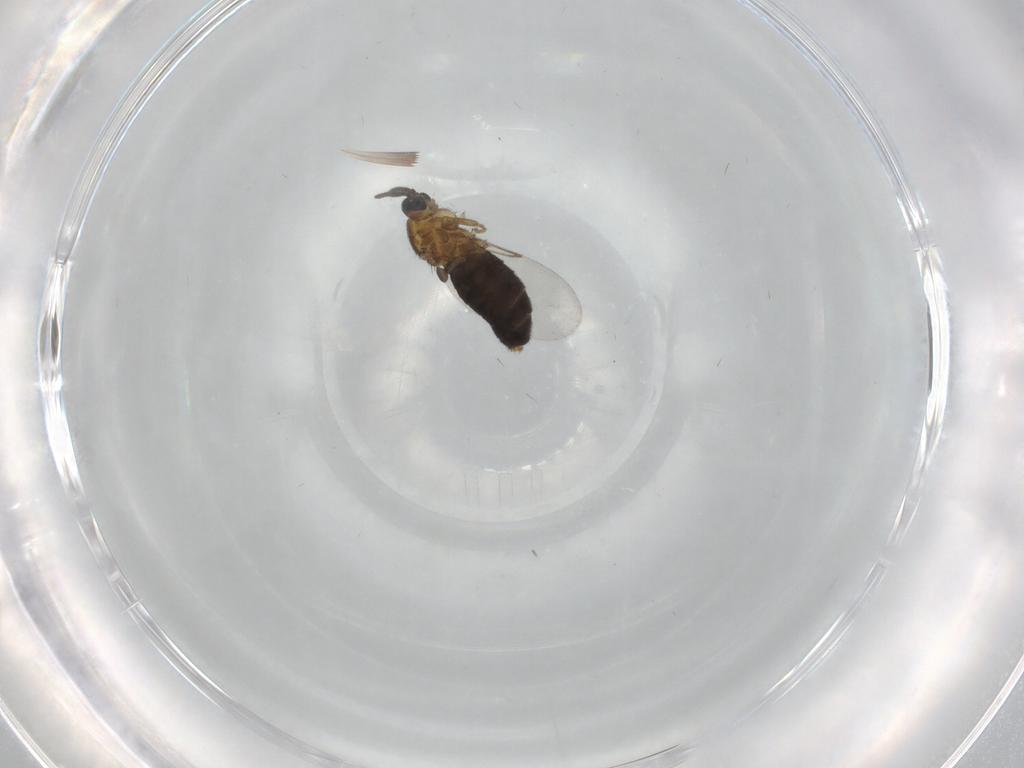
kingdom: Animalia
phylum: Arthropoda
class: Insecta
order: Diptera
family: Scatopsidae
